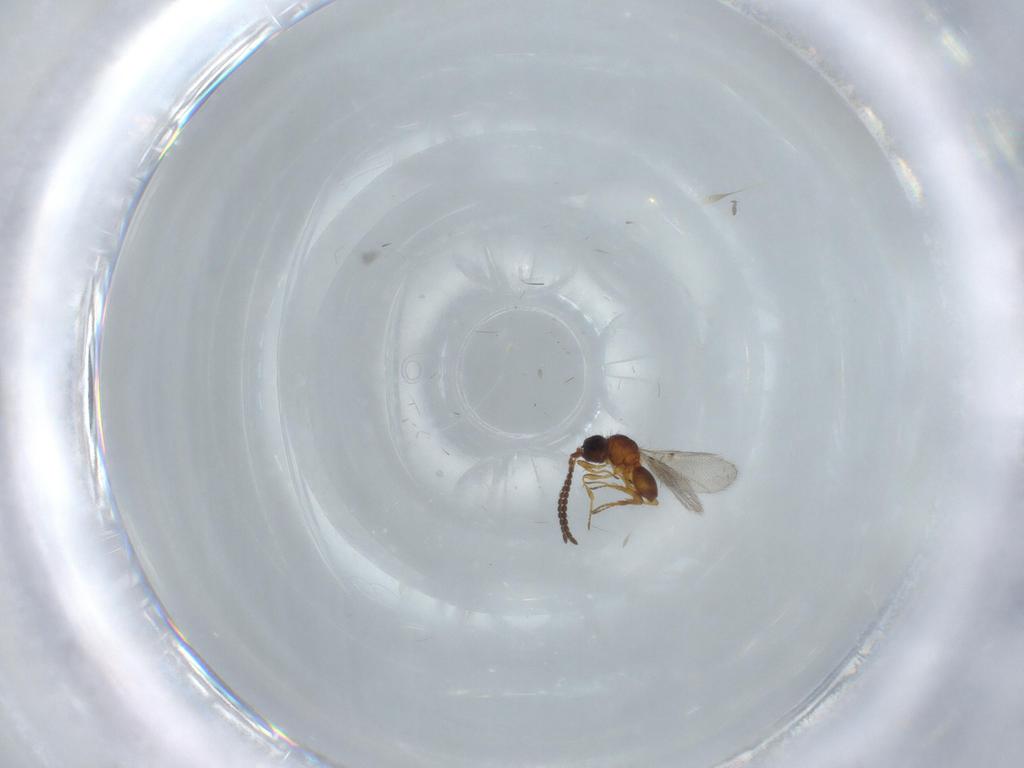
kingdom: Animalia
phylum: Arthropoda
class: Insecta
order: Hymenoptera
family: Diapriidae
